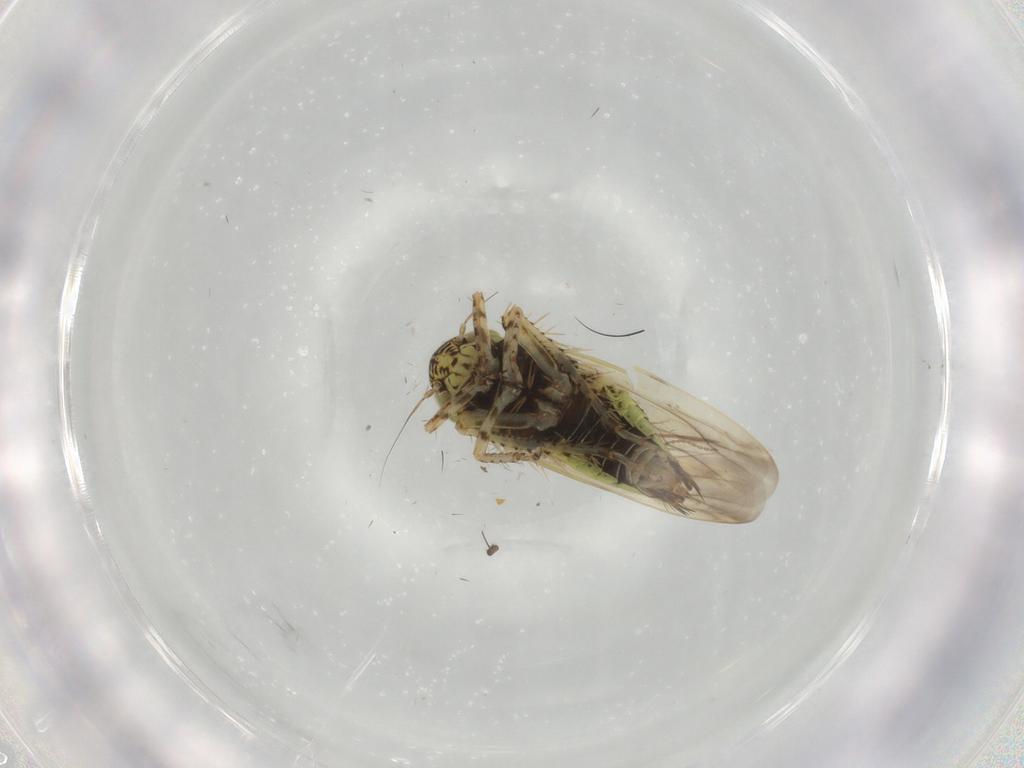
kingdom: Animalia
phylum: Arthropoda
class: Insecta
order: Hemiptera
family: Cicadellidae
